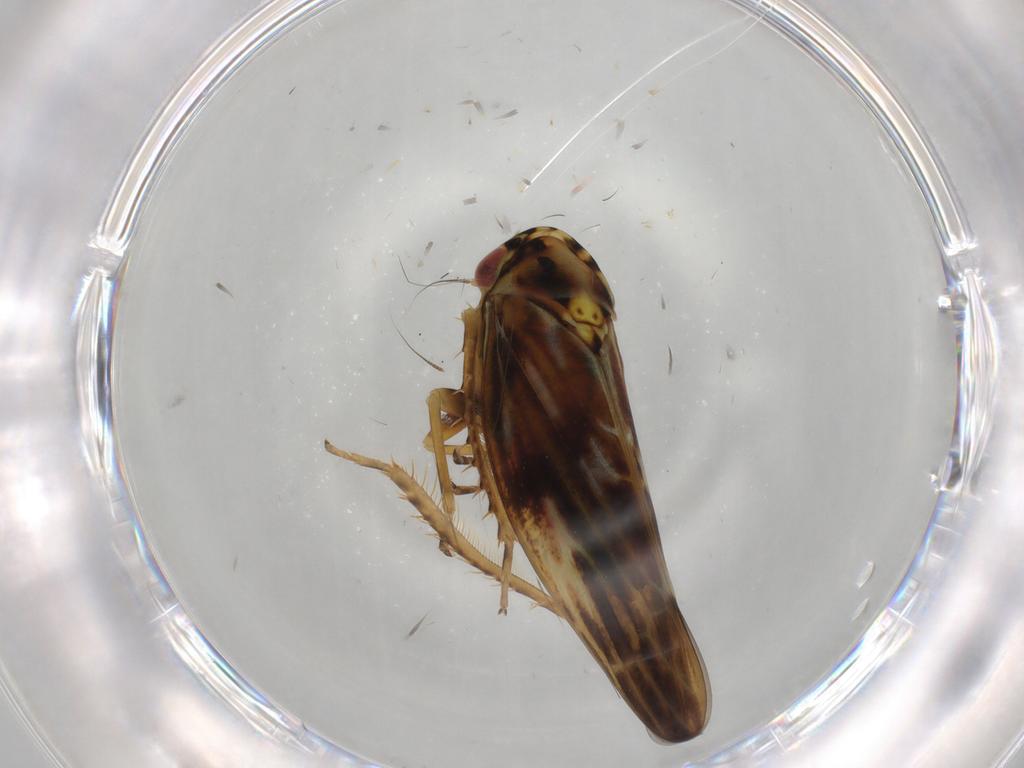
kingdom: Animalia
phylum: Arthropoda
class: Insecta
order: Hemiptera
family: Cicadellidae
